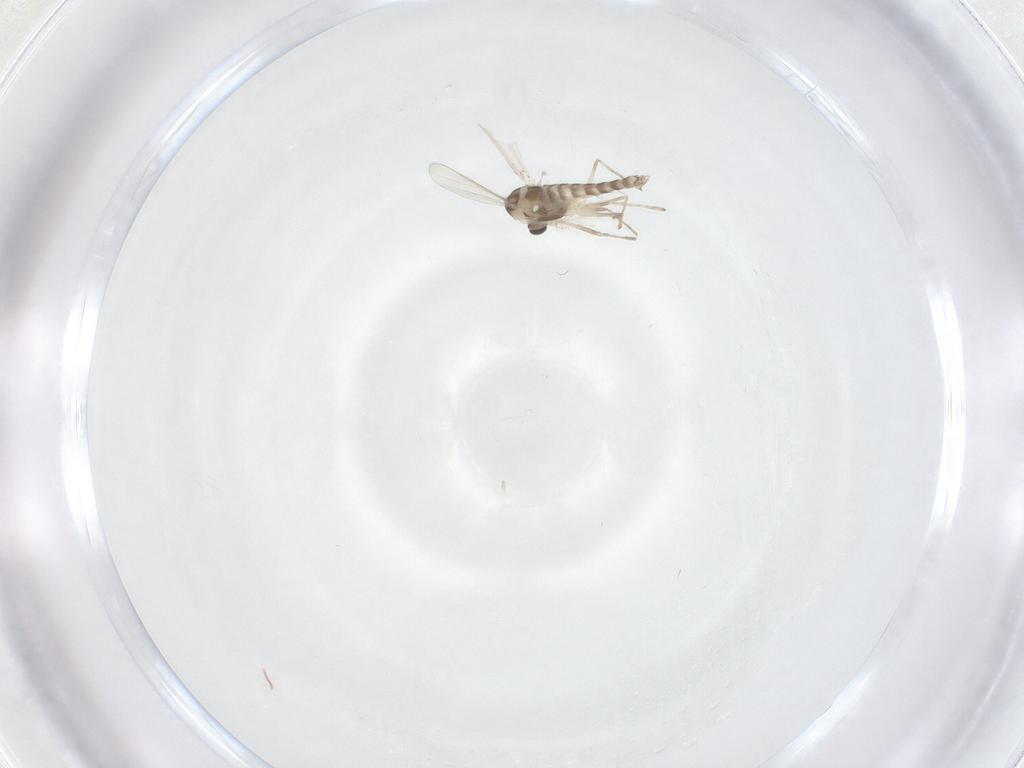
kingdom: Animalia
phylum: Arthropoda
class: Insecta
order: Diptera
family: Chironomidae
